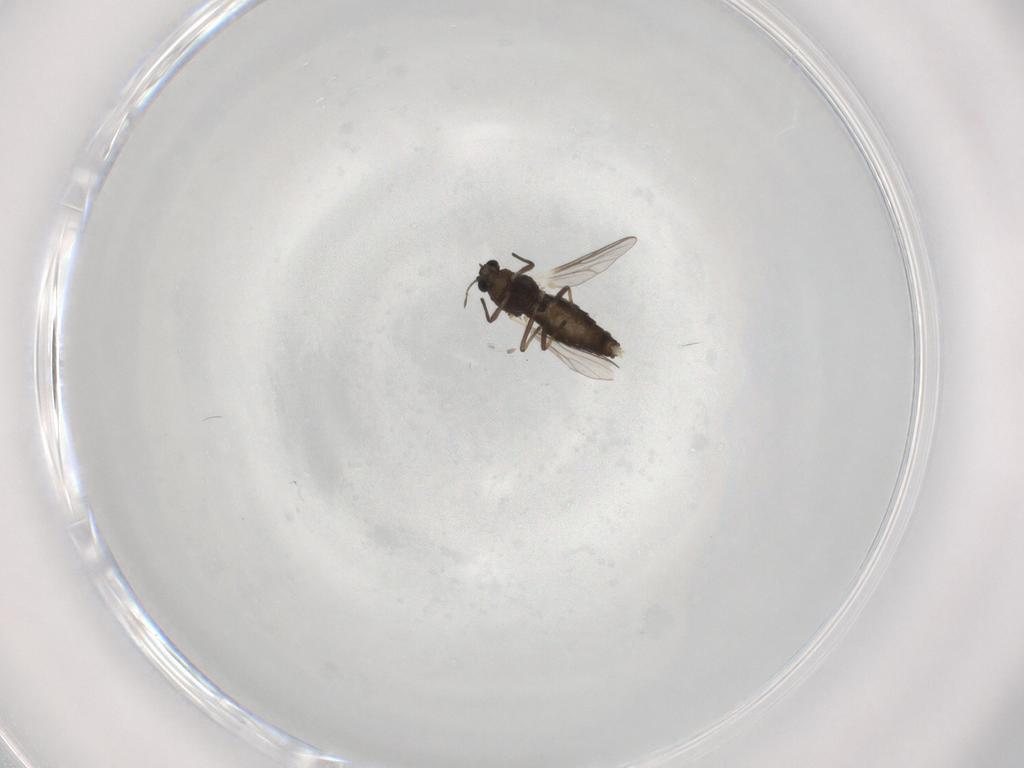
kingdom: Animalia
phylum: Arthropoda
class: Insecta
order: Diptera
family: Chironomidae
